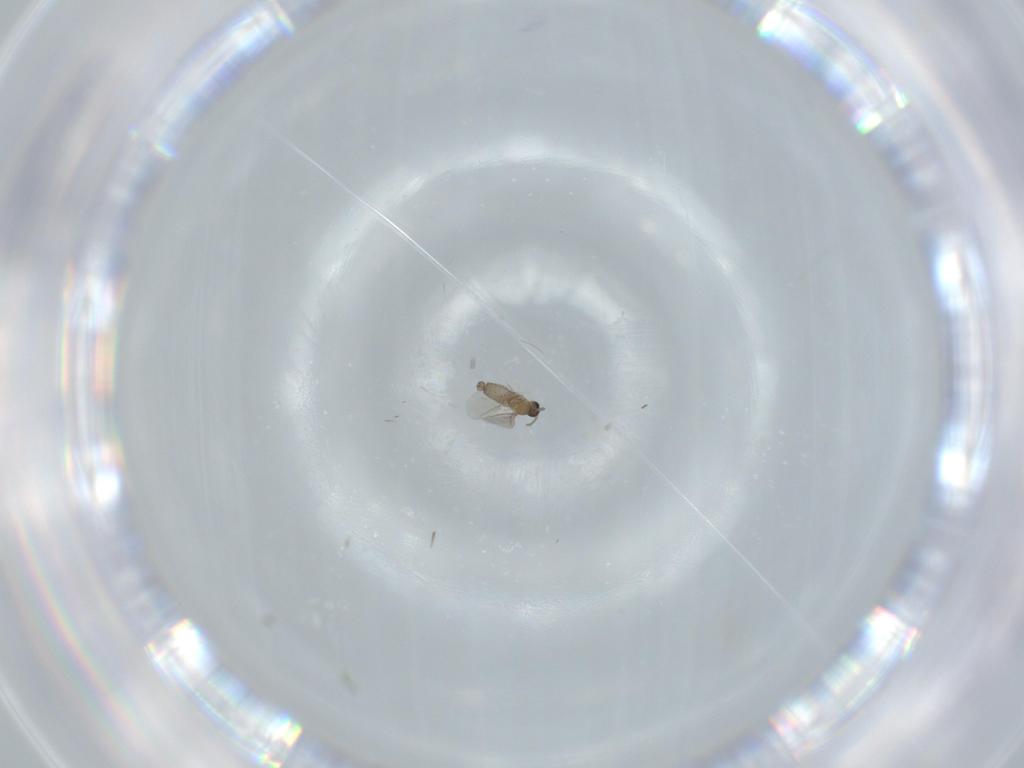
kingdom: Animalia
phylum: Arthropoda
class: Insecta
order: Diptera
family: Cecidomyiidae
